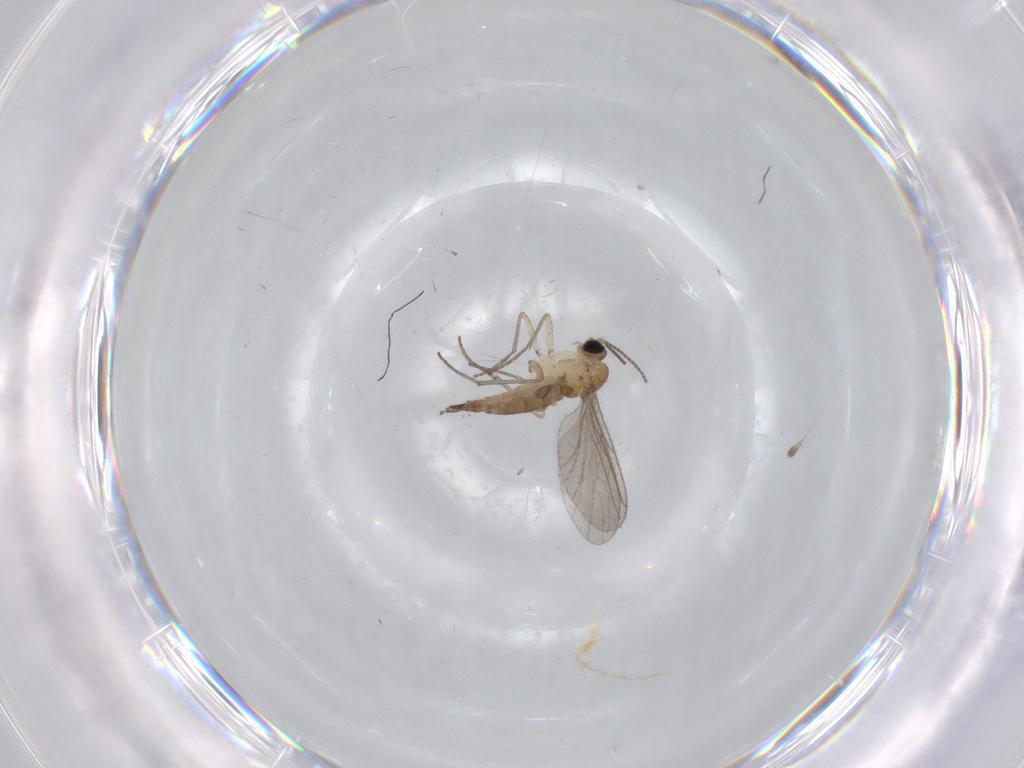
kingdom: Animalia
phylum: Arthropoda
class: Insecta
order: Diptera
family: Sciaridae
